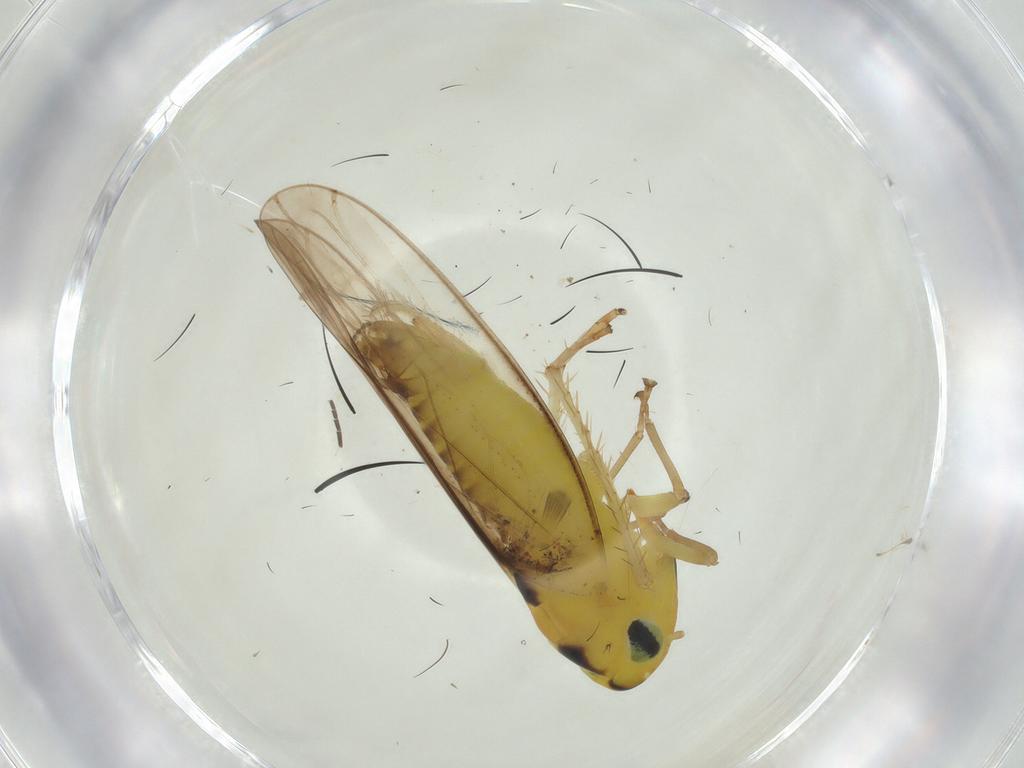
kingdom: Animalia
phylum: Arthropoda
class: Insecta
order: Hemiptera
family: Cicadellidae
